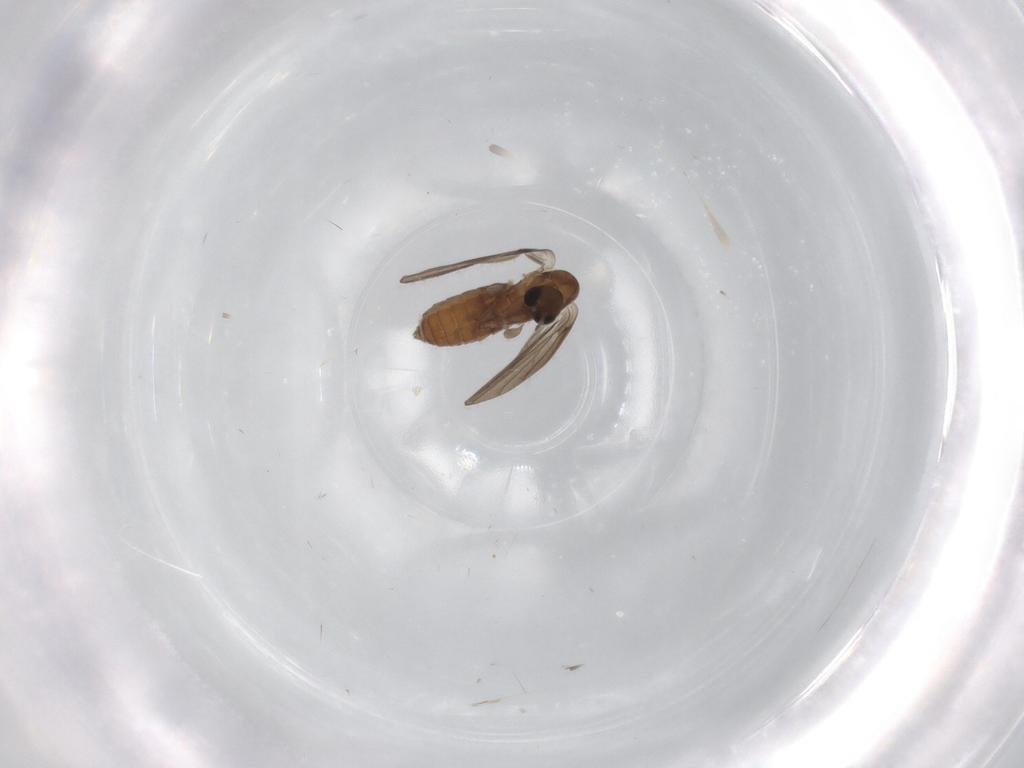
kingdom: Animalia
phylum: Arthropoda
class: Insecta
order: Diptera
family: Psychodidae
